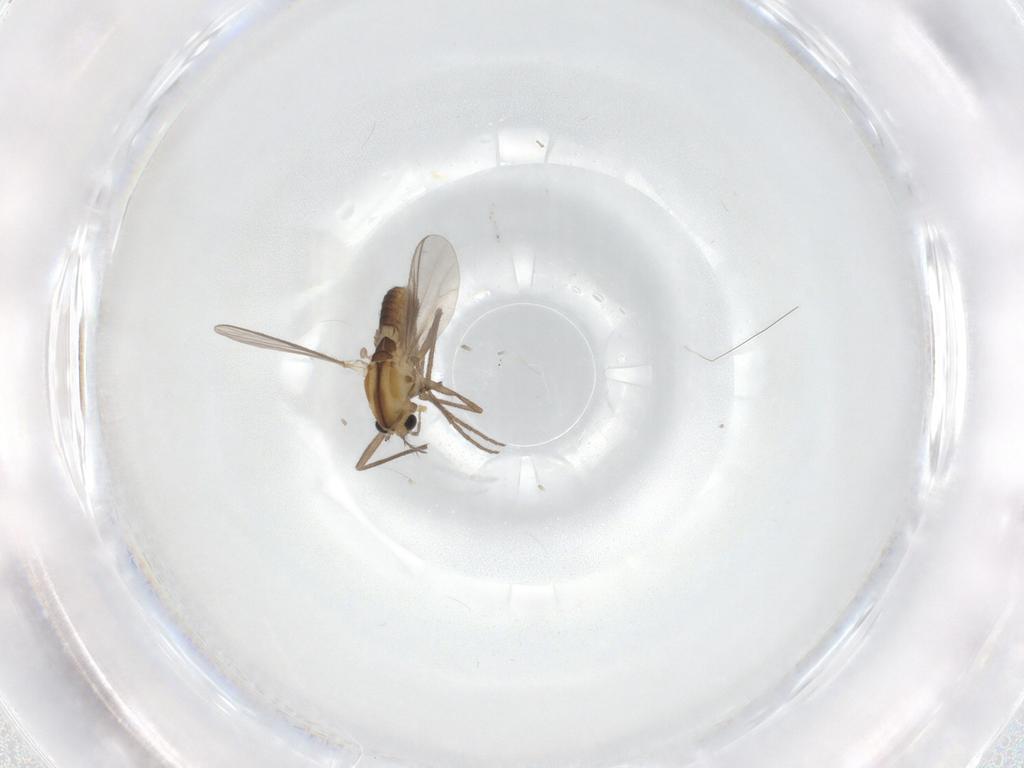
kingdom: Animalia
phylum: Arthropoda
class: Insecta
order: Diptera
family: Chironomidae
